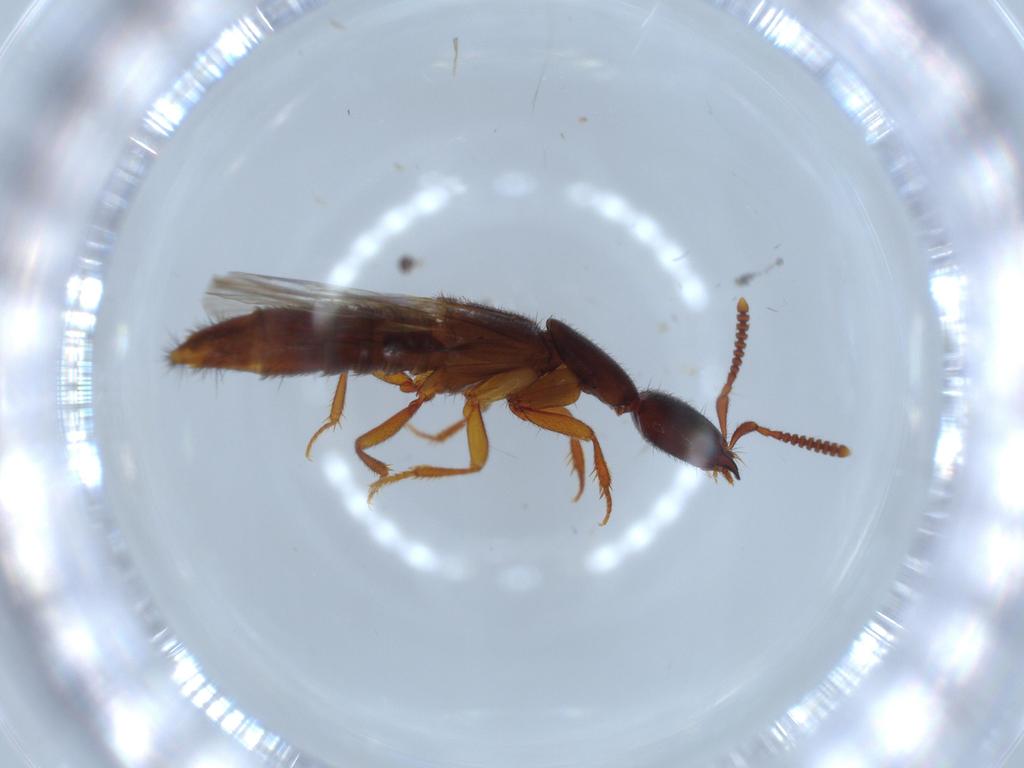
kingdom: Animalia
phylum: Arthropoda
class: Insecta
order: Coleoptera
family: Staphylinidae
